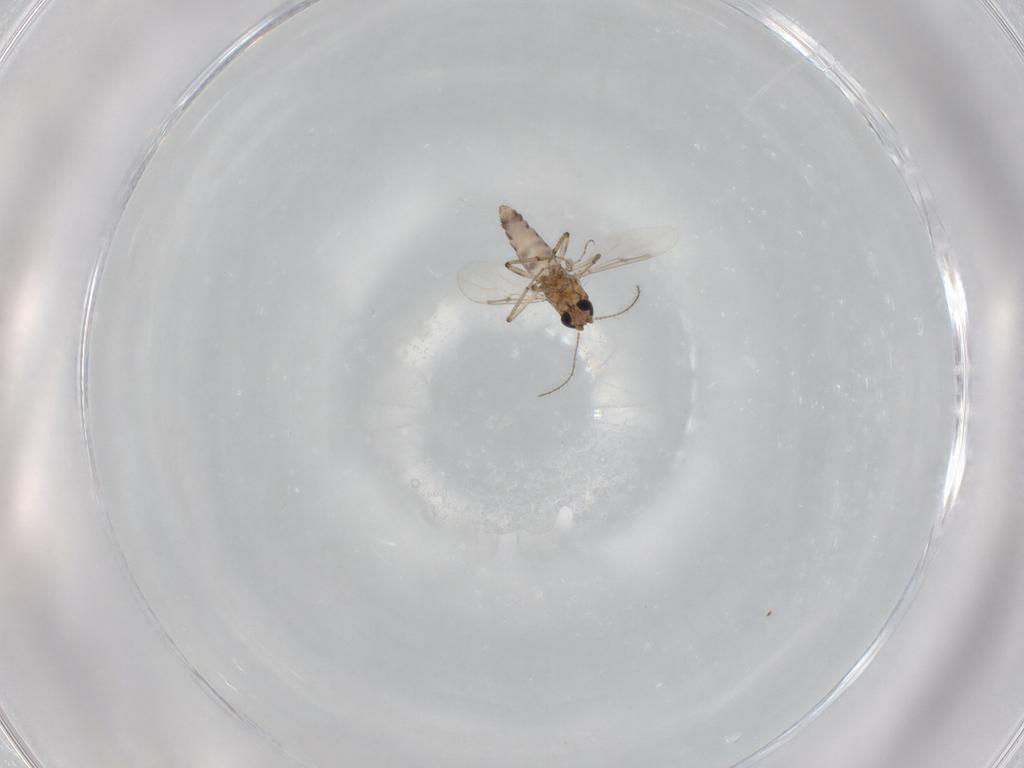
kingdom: Animalia
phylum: Arthropoda
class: Insecta
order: Diptera
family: Ceratopogonidae
